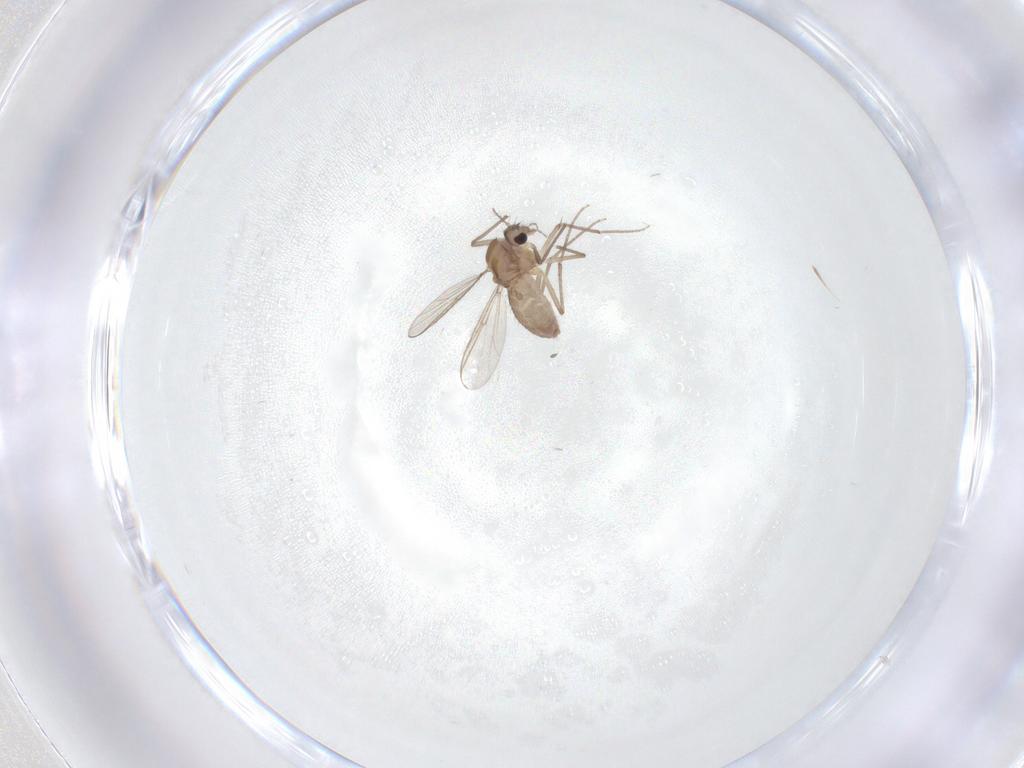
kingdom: Animalia
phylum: Arthropoda
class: Insecta
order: Diptera
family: Chironomidae
